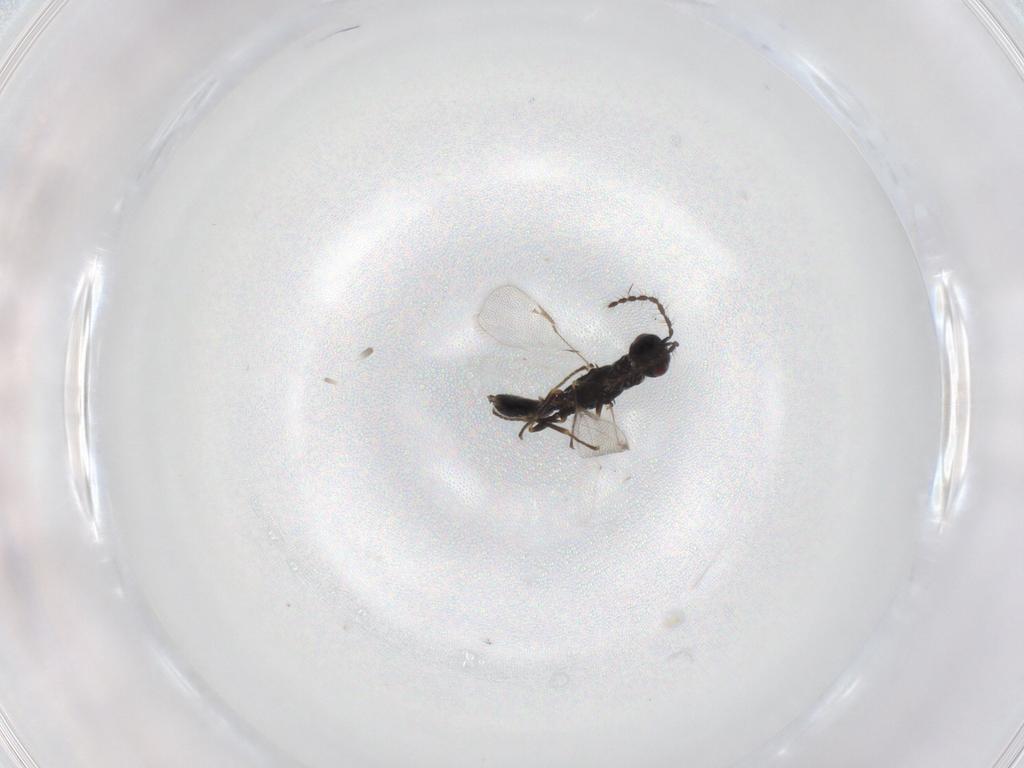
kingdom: Animalia
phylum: Arthropoda
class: Insecta
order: Hymenoptera
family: Eurytomidae
